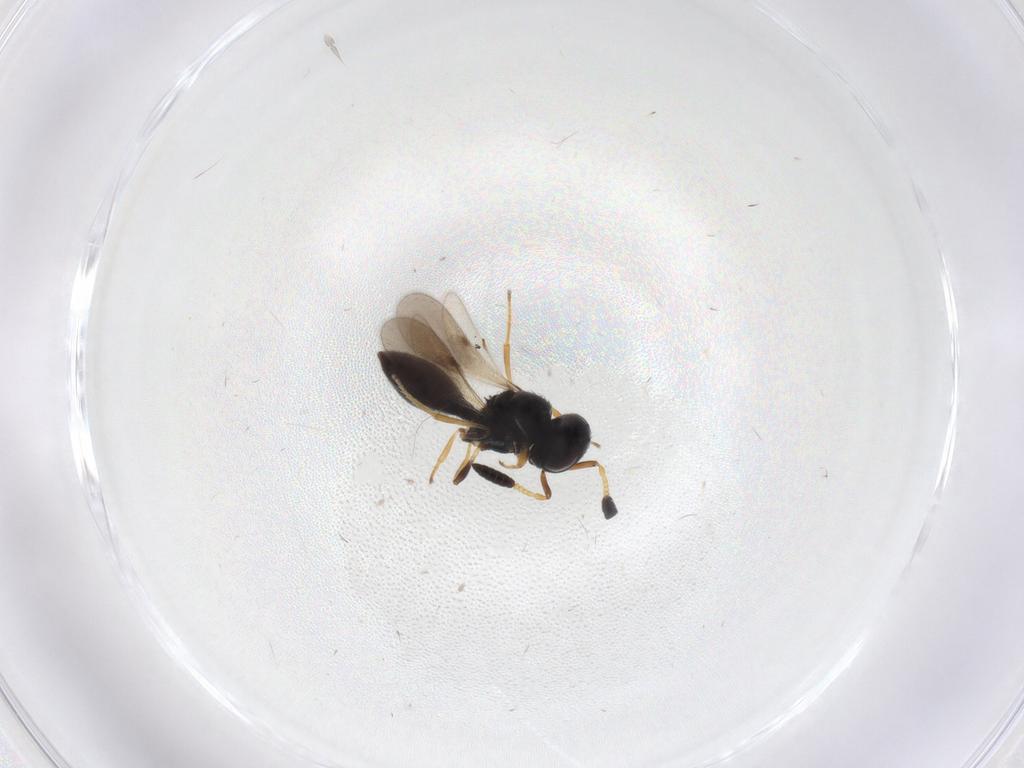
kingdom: Animalia
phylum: Arthropoda
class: Insecta
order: Hymenoptera
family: Scelionidae
